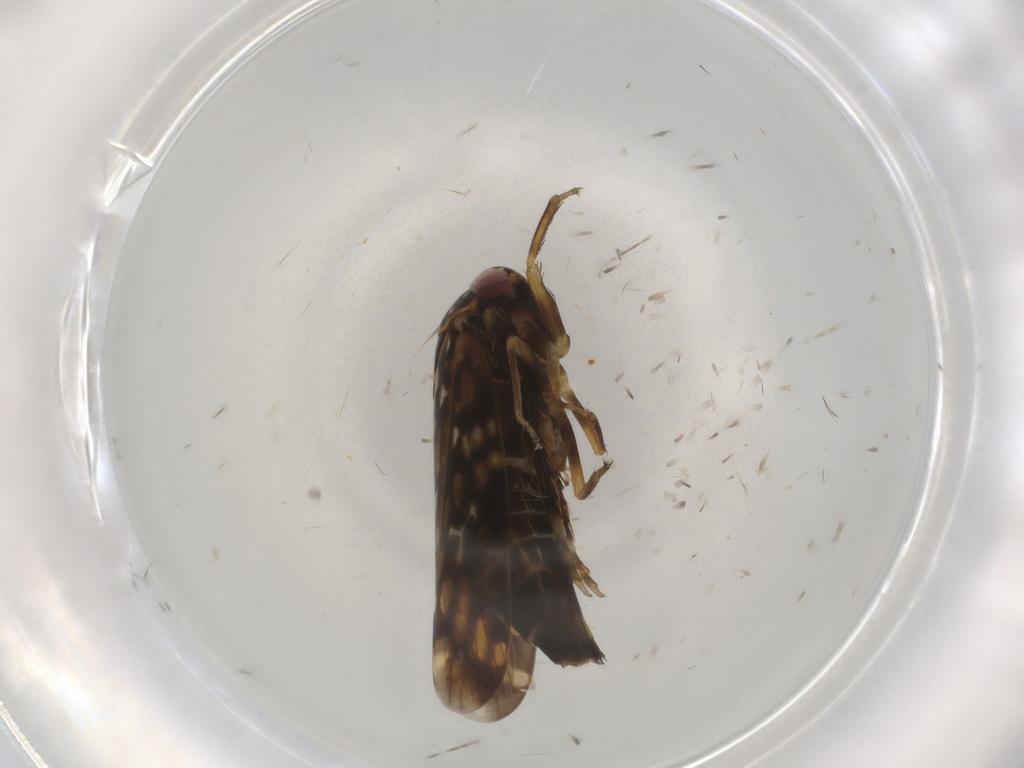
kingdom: Animalia
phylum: Arthropoda
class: Insecta
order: Hemiptera
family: Cicadellidae
